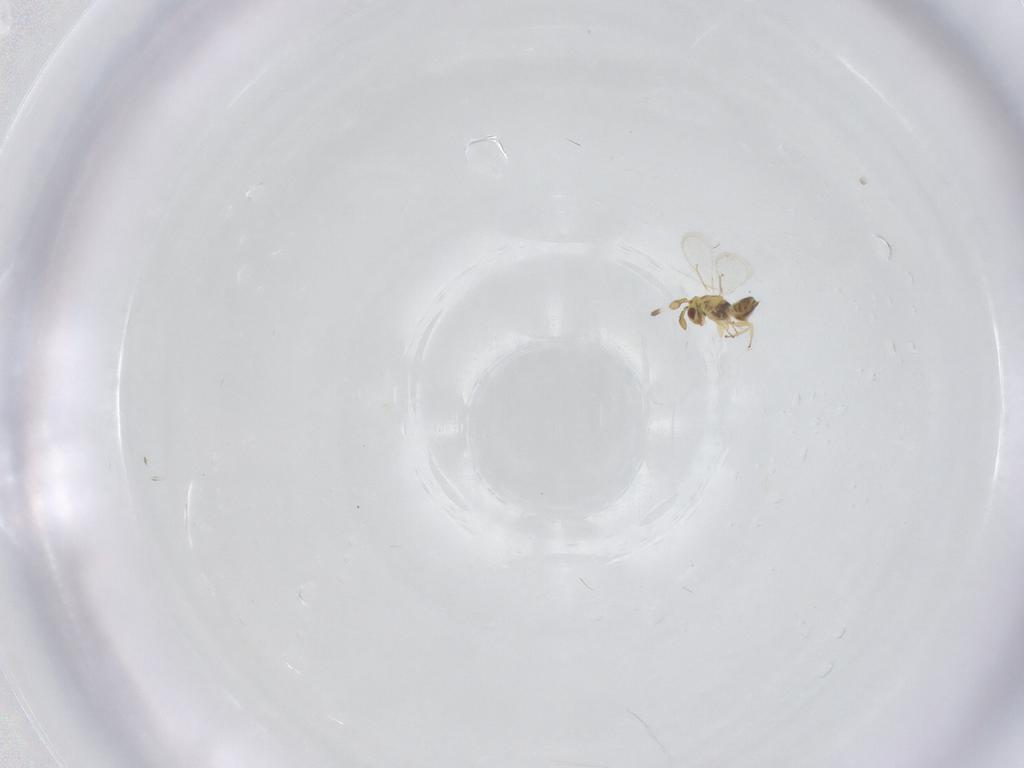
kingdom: Animalia
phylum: Arthropoda
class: Insecta
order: Hymenoptera
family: Eulophidae
